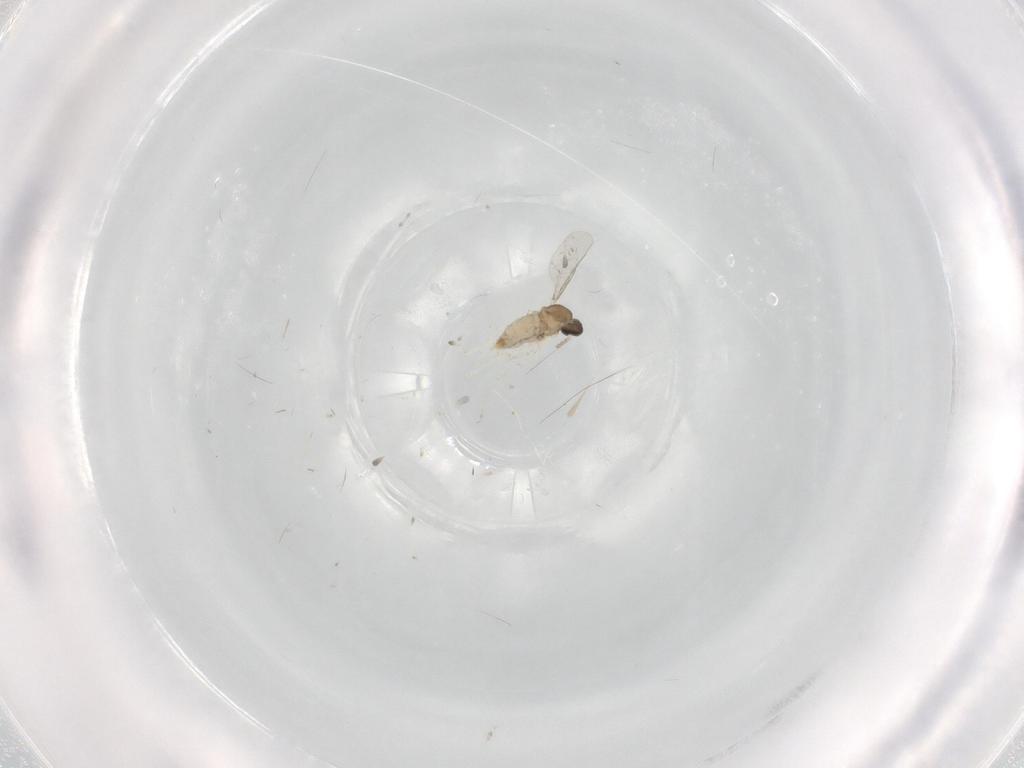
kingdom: Animalia
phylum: Arthropoda
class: Insecta
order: Diptera
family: Cecidomyiidae
